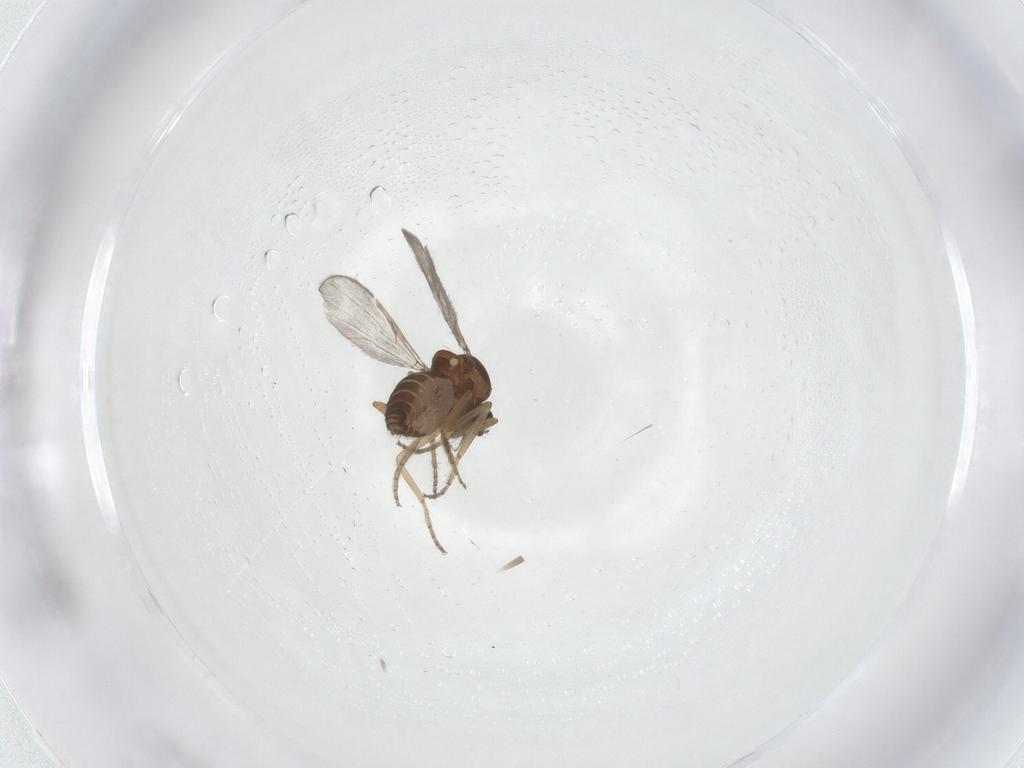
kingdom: Animalia
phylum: Arthropoda
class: Insecta
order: Diptera
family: Ceratopogonidae
